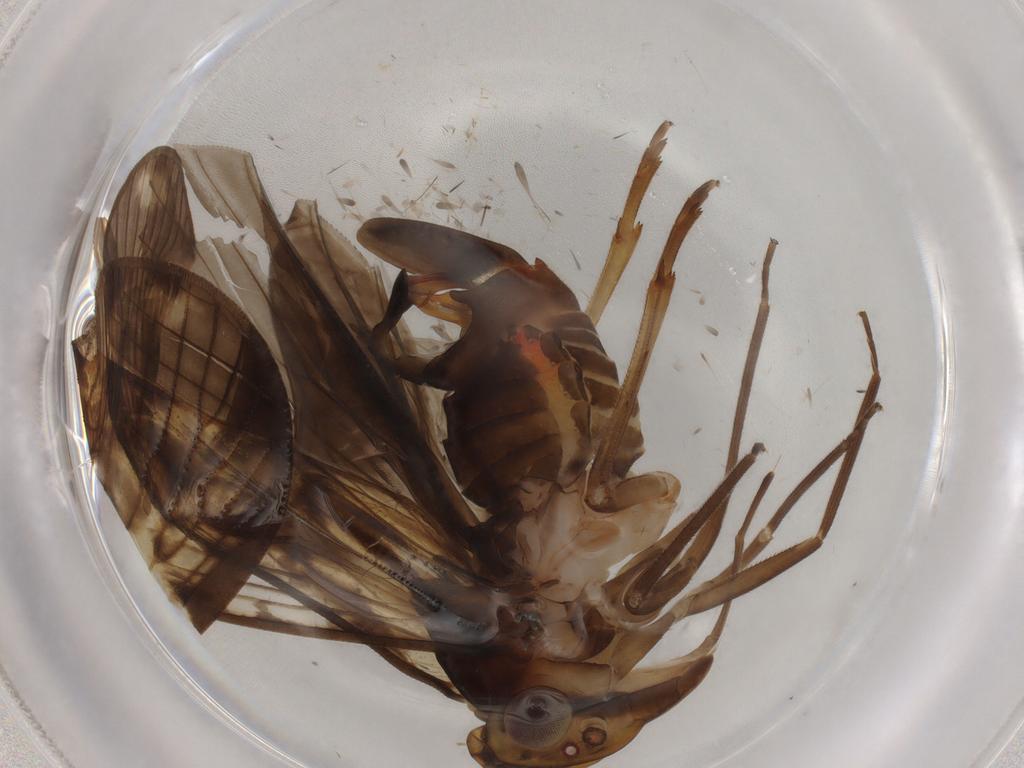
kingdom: Animalia
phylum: Arthropoda
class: Insecta
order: Hemiptera
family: Cixiidae
